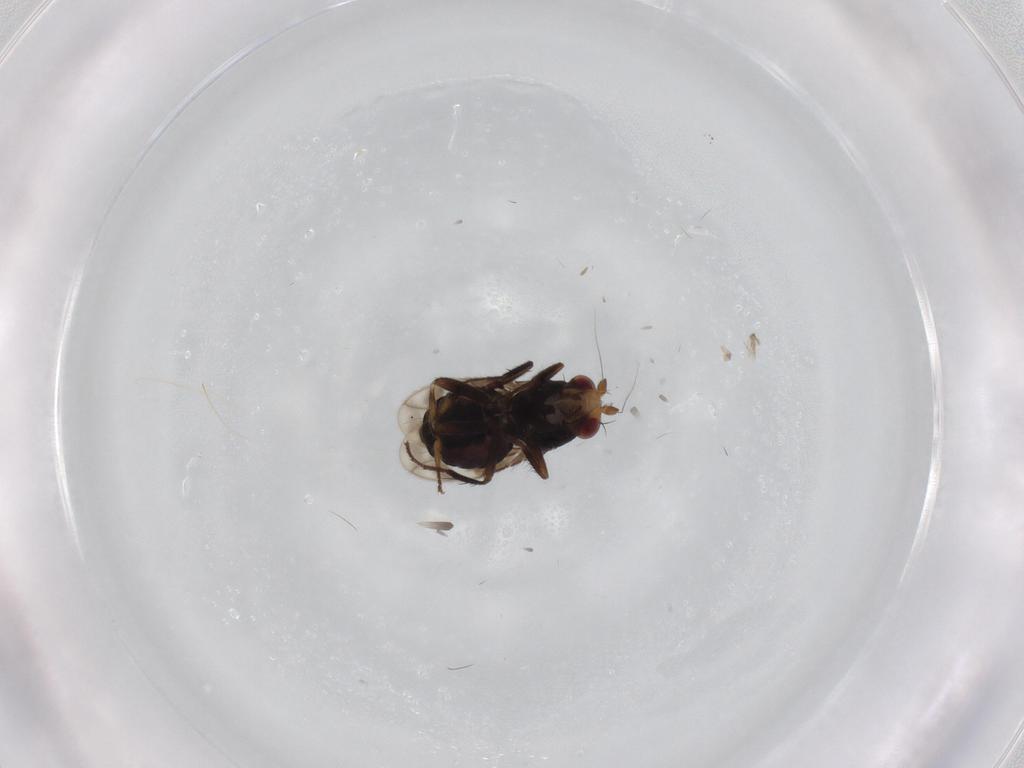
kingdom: Animalia
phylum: Arthropoda
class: Insecta
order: Diptera
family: Sphaeroceridae
